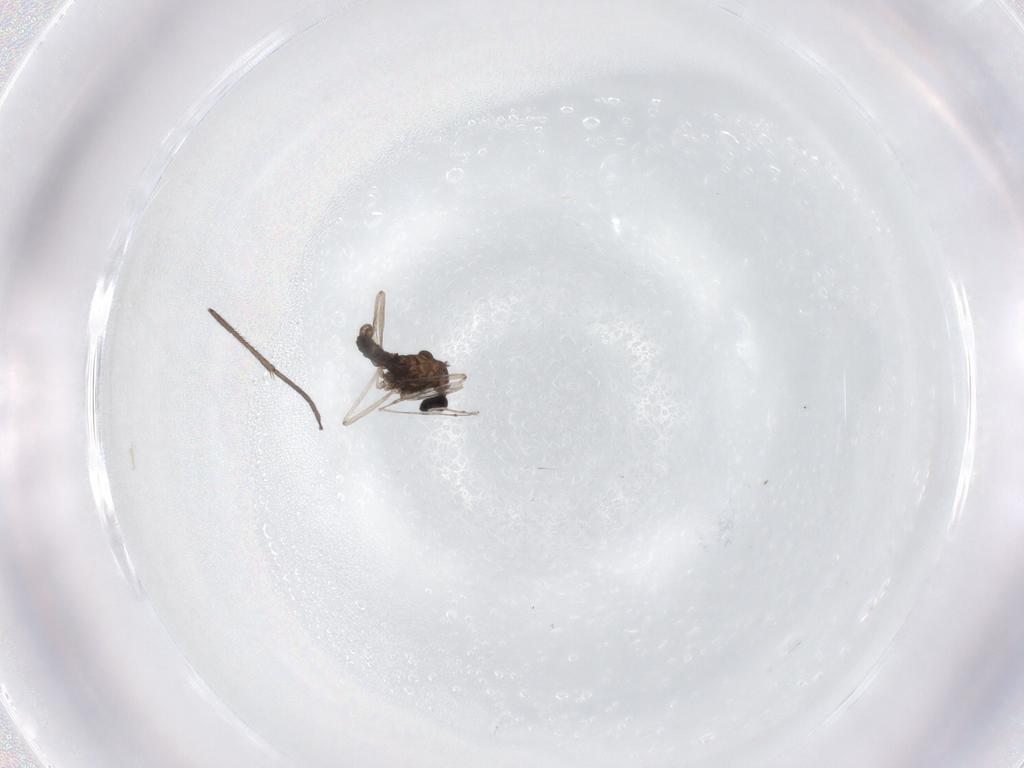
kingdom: Animalia
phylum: Arthropoda
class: Insecta
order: Diptera
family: Cecidomyiidae
